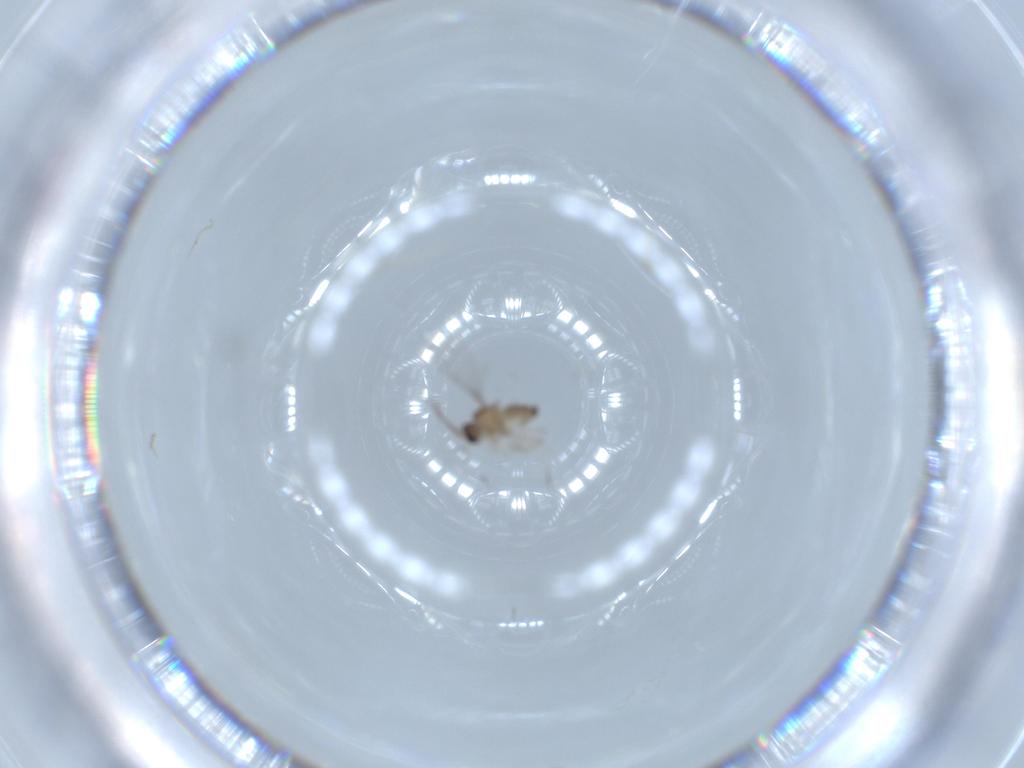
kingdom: Animalia
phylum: Arthropoda
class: Insecta
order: Diptera
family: Cecidomyiidae
